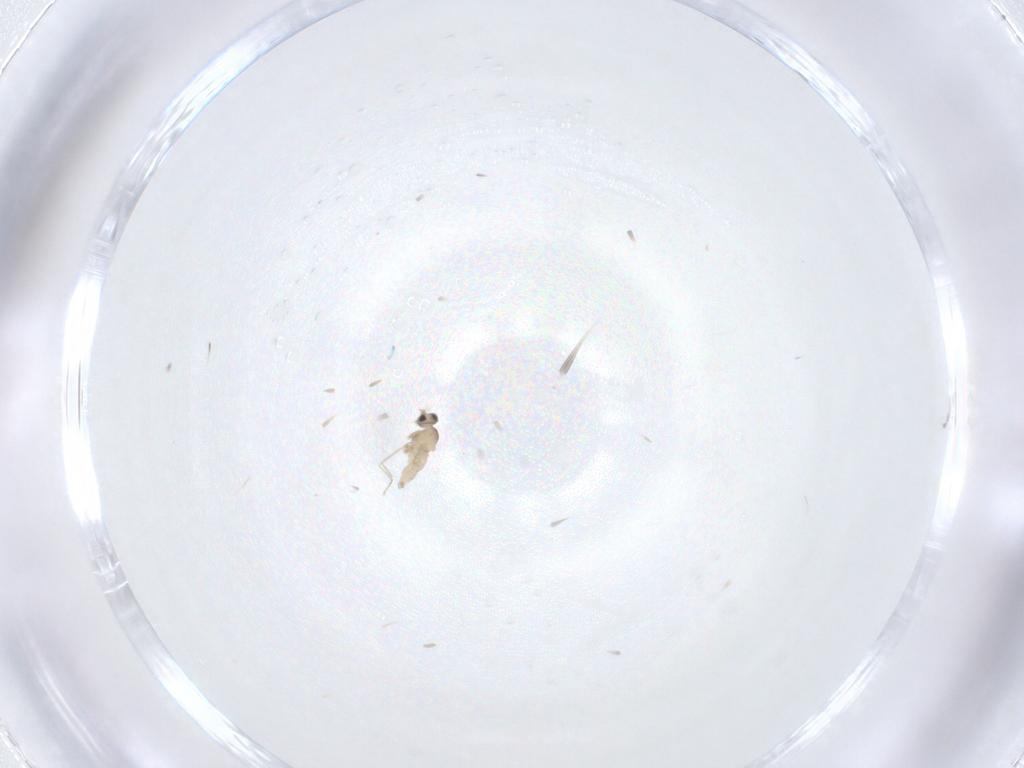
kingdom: Animalia
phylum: Arthropoda
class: Insecta
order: Diptera
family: Cecidomyiidae
